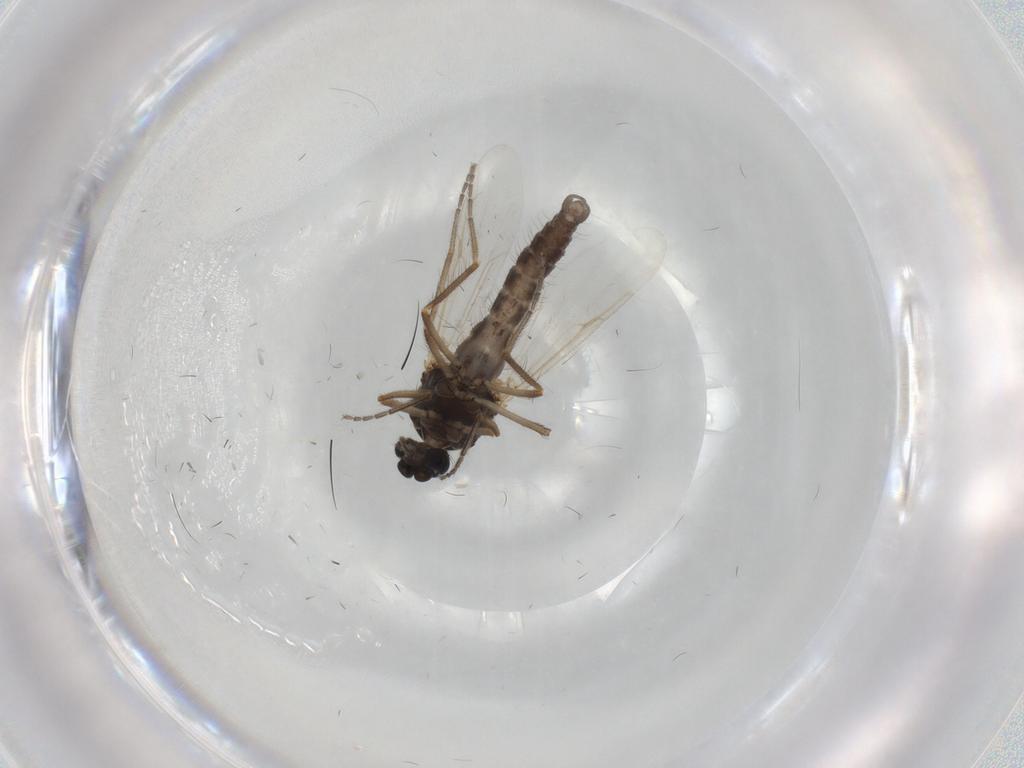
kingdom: Animalia
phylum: Arthropoda
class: Insecta
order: Diptera
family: Ceratopogonidae
